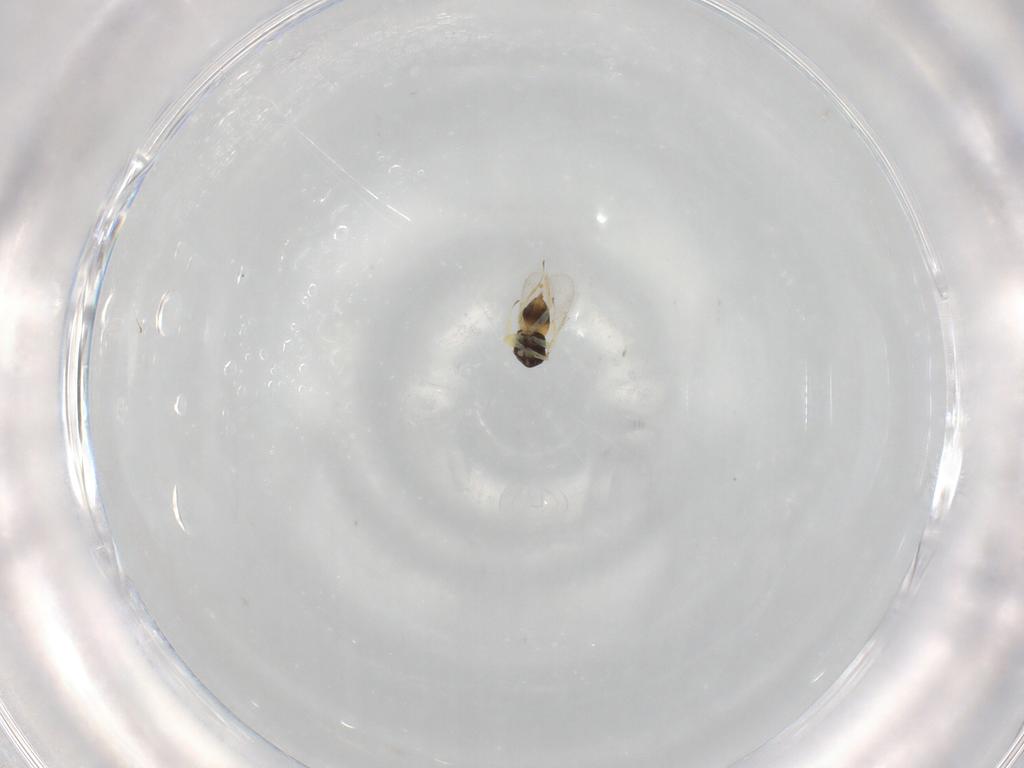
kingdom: Animalia
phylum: Arthropoda
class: Insecta
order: Hymenoptera
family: Aphelinidae
